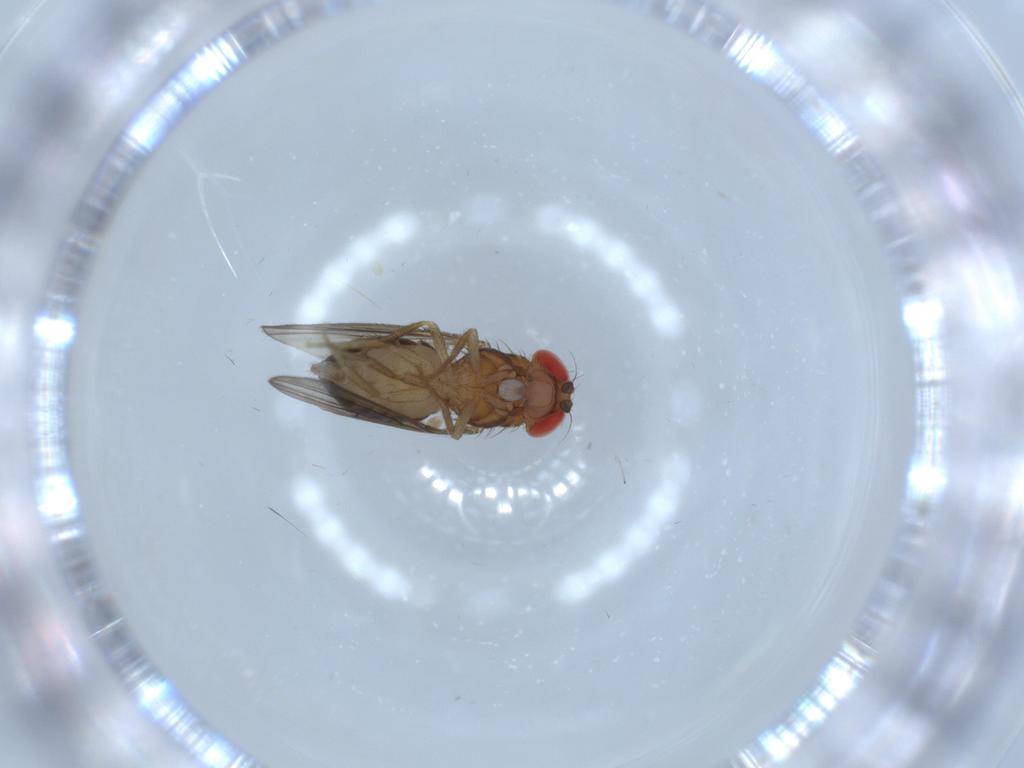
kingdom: Animalia
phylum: Arthropoda
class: Insecta
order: Diptera
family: Drosophilidae
